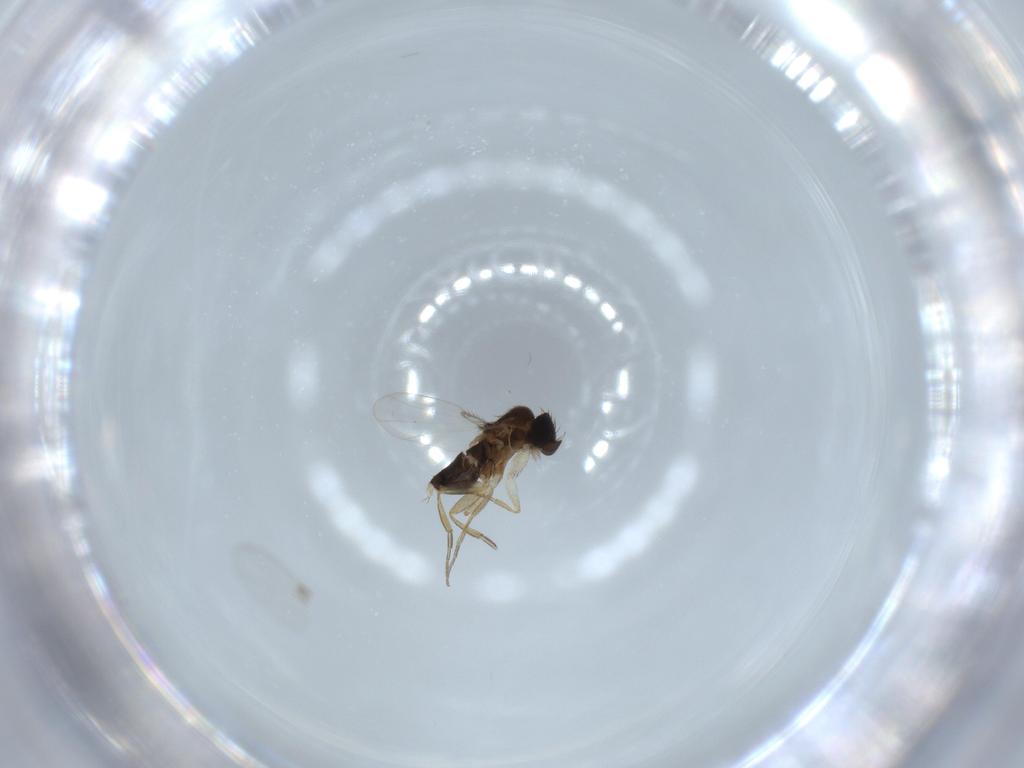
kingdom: Animalia
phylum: Arthropoda
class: Insecta
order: Diptera
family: Phoridae
